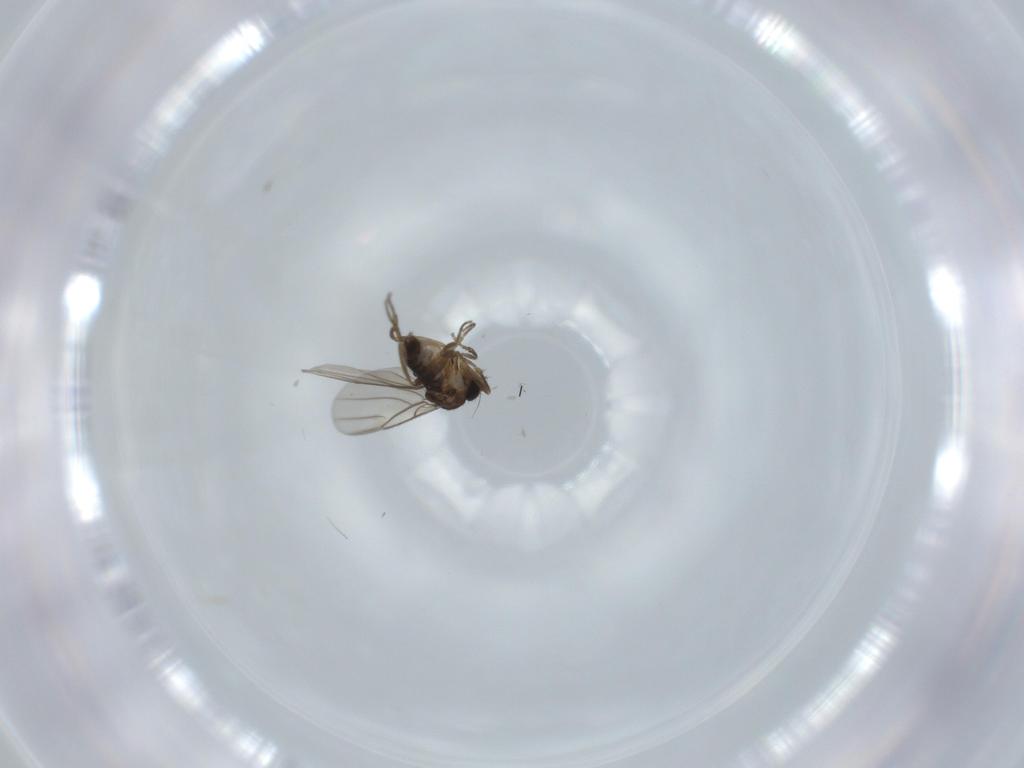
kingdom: Animalia
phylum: Arthropoda
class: Insecta
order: Diptera
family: Phoridae
